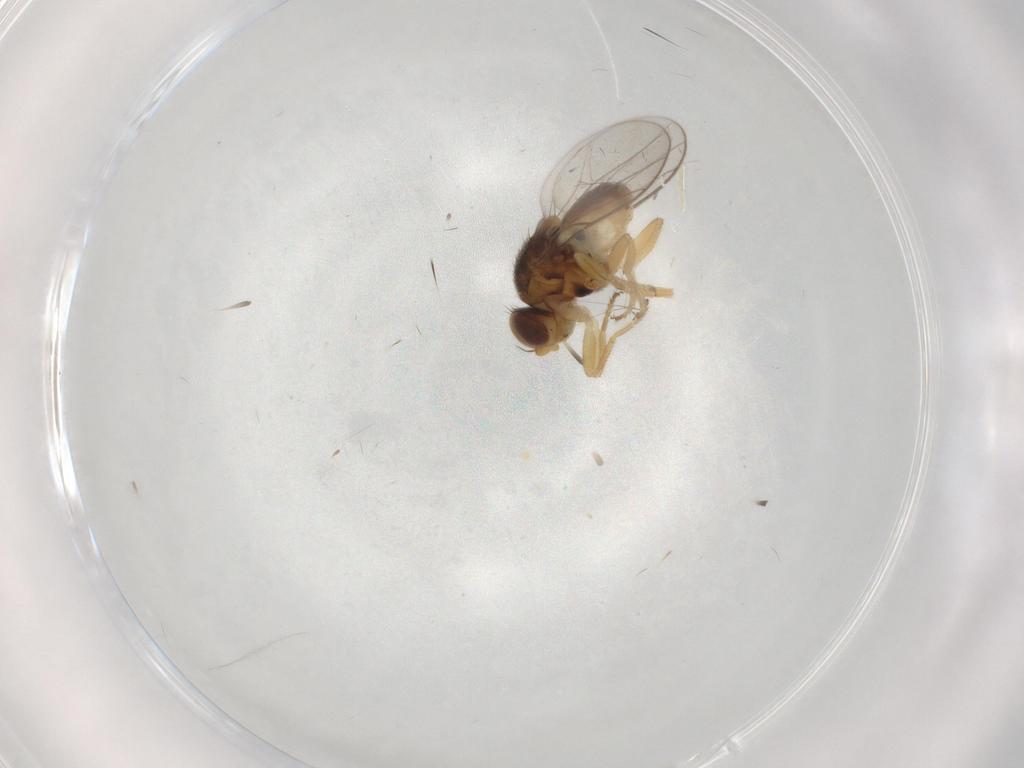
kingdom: Animalia
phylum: Arthropoda
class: Insecta
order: Diptera
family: Chloropidae
